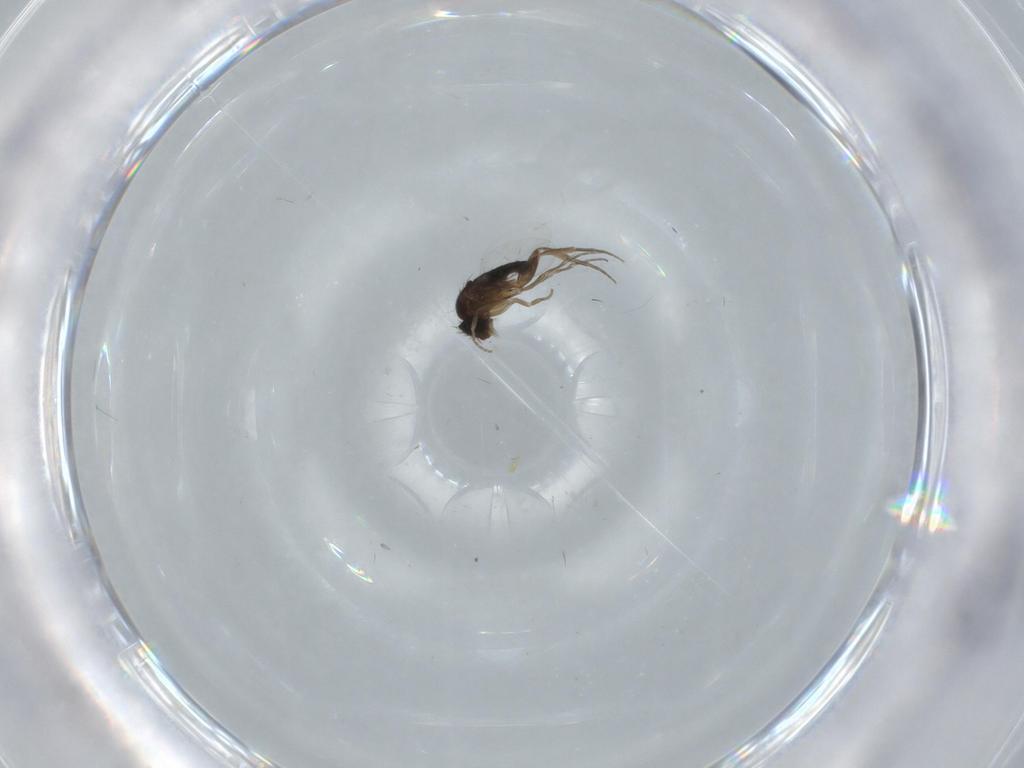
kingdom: Animalia
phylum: Arthropoda
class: Insecta
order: Diptera
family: Phoridae
